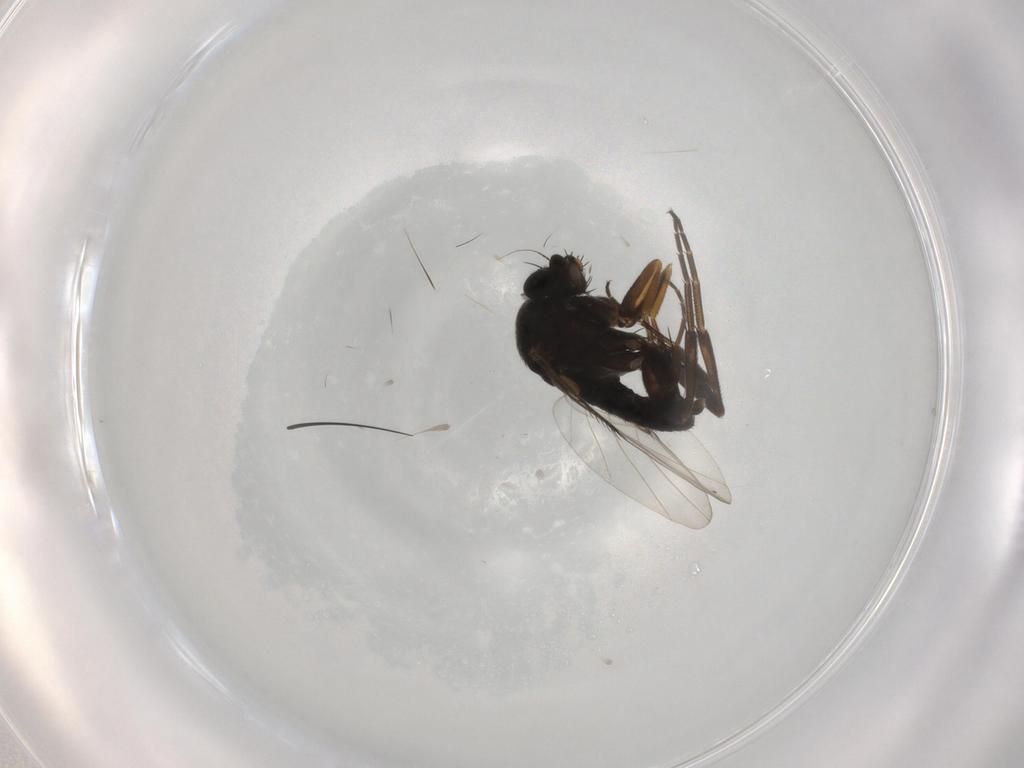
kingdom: Animalia
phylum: Arthropoda
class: Insecta
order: Diptera
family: Phoridae
